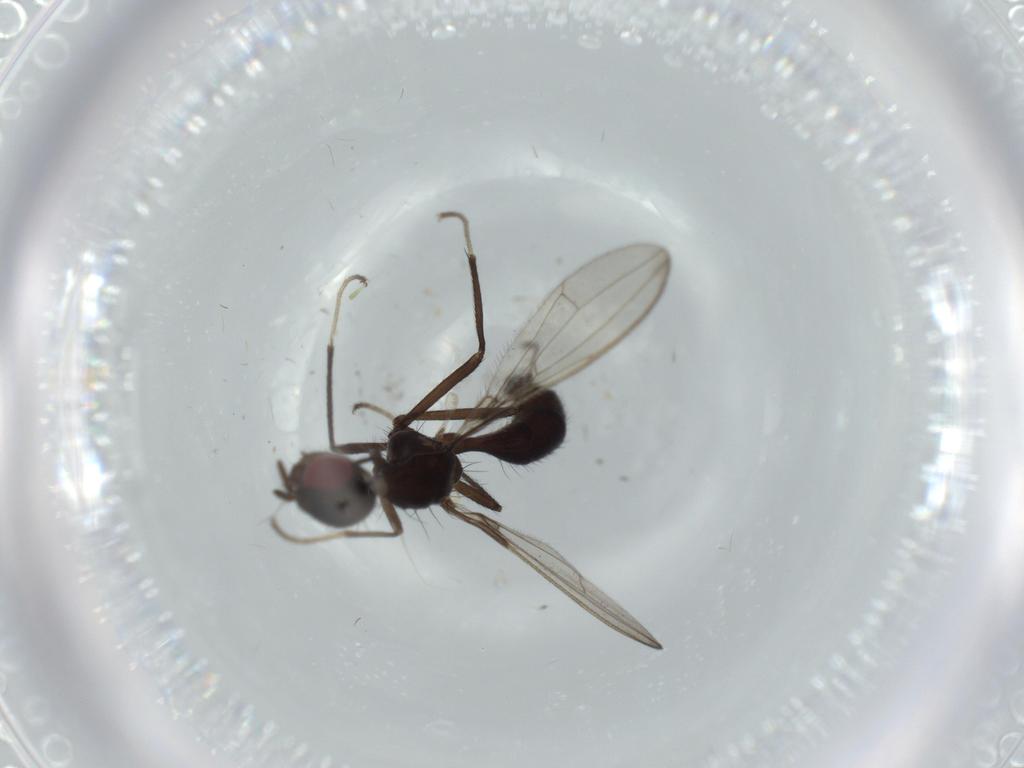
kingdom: Animalia
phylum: Arthropoda
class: Insecta
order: Diptera
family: Richardiidae
